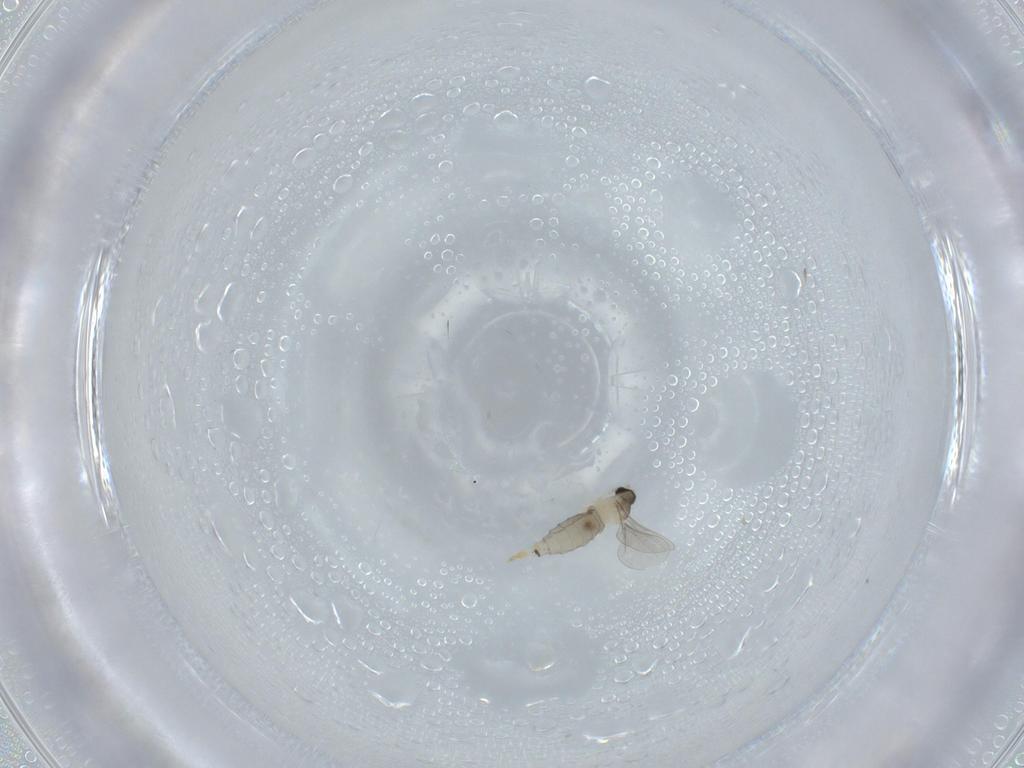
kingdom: Animalia
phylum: Arthropoda
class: Insecta
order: Diptera
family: Cecidomyiidae
